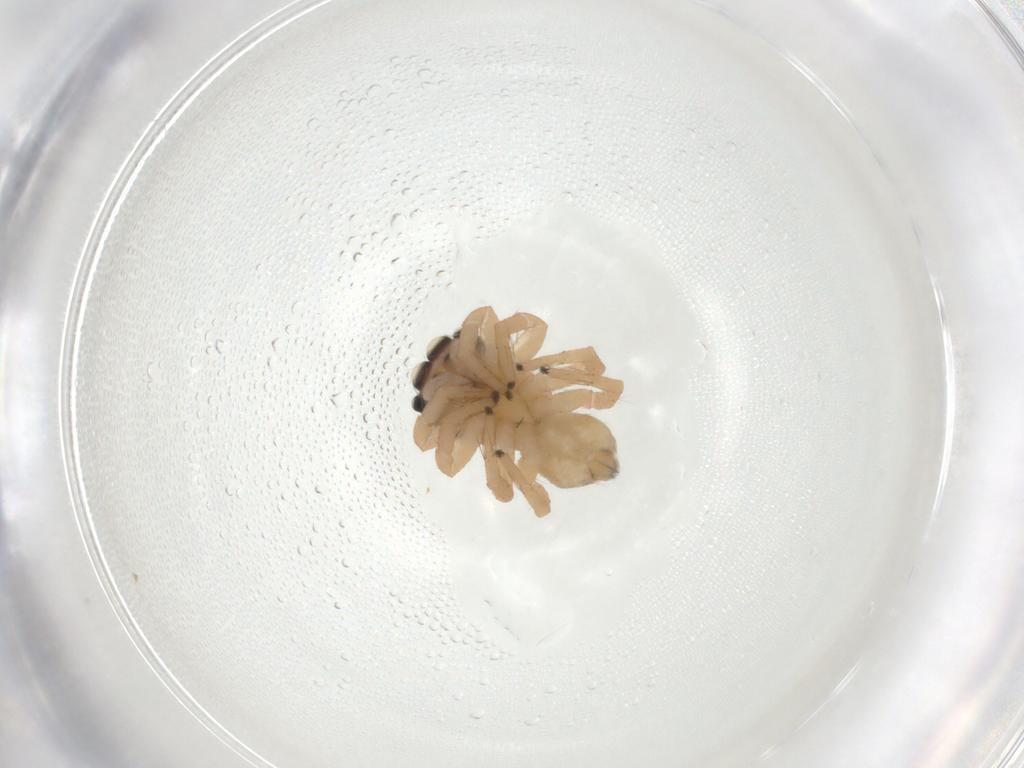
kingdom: Animalia
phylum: Arthropoda
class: Arachnida
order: Araneae
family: Salticidae
